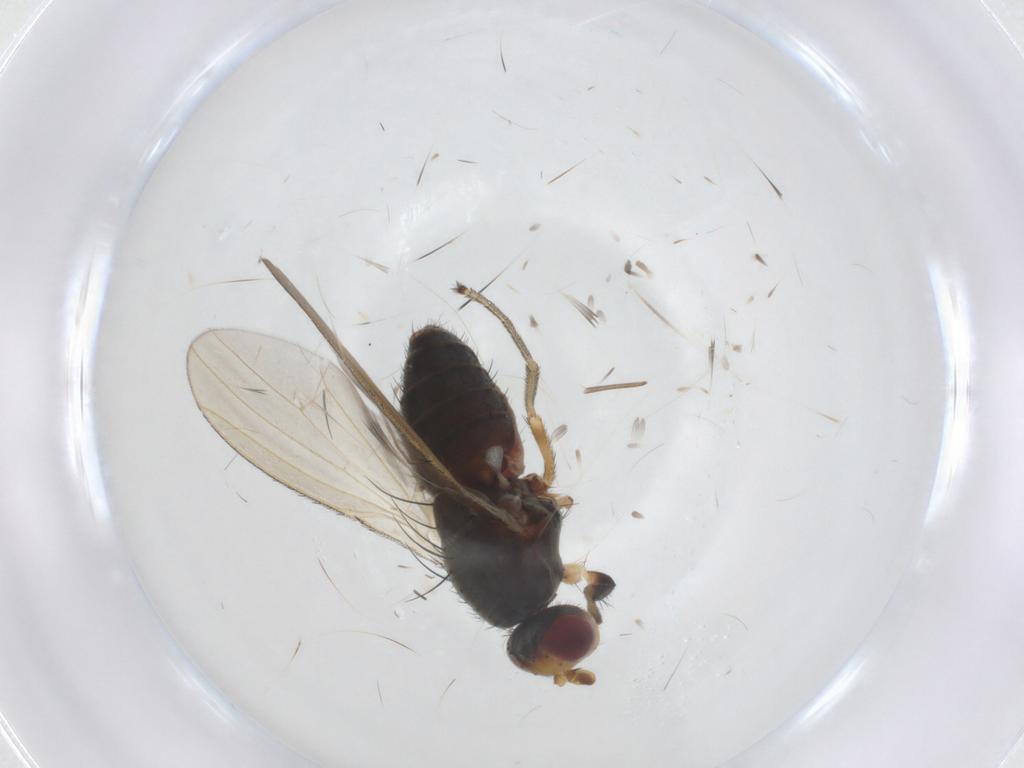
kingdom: Animalia
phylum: Arthropoda
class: Insecta
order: Diptera
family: Ulidiidae
